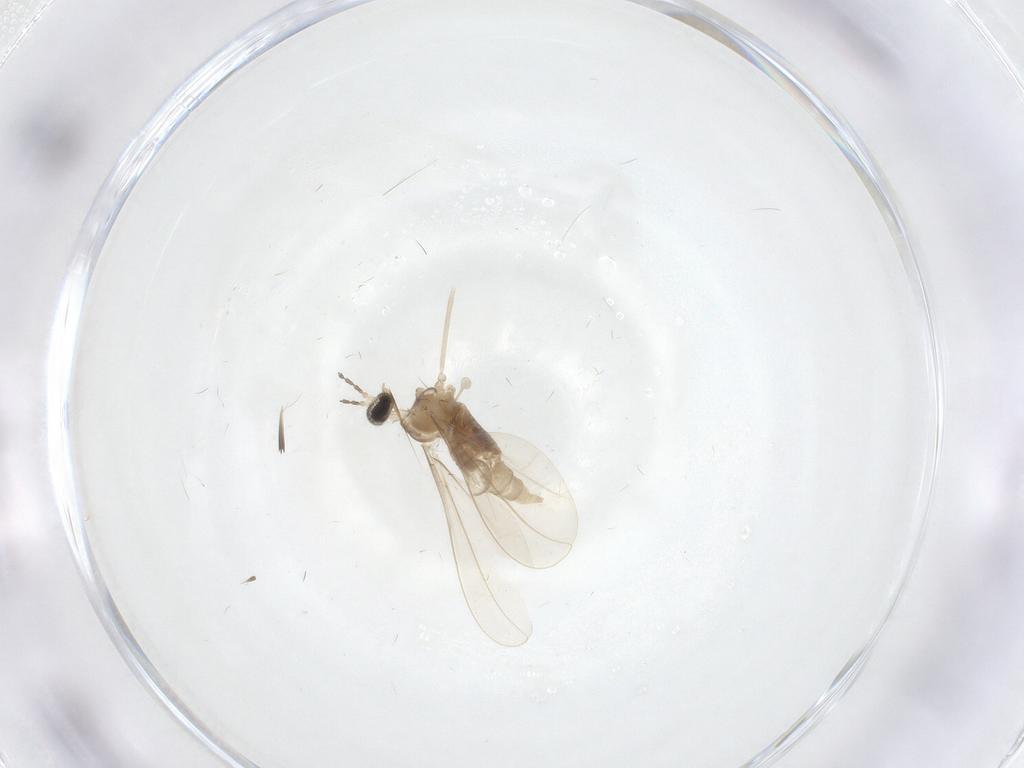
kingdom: Animalia
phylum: Arthropoda
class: Insecta
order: Diptera
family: Cecidomyiidae
